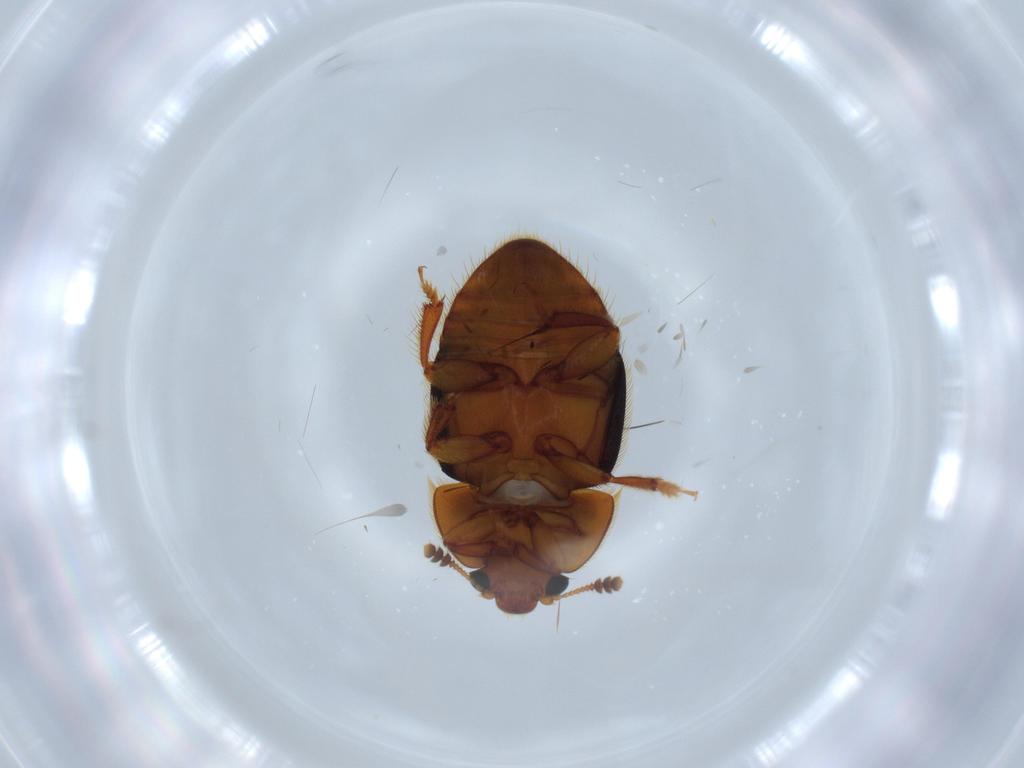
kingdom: Animalia
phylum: Arthropoda
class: Insecta
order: Coleoptera
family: Nitidulidae
